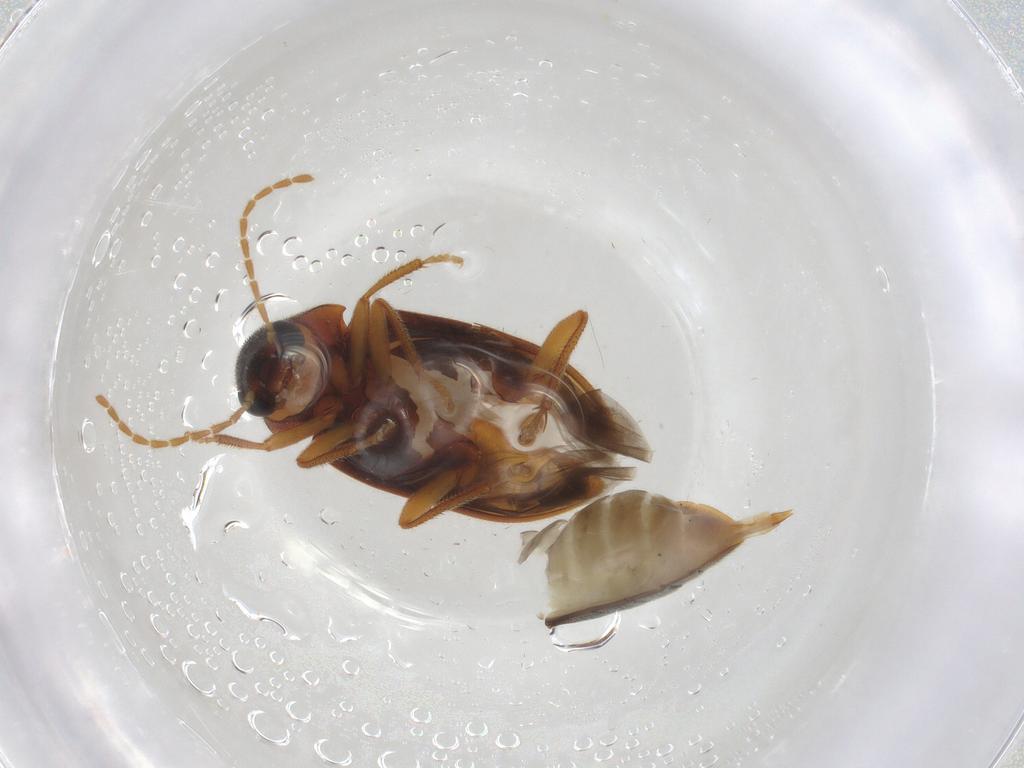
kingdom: Animalia
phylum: Arthropoda
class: Insecta
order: Coleoptera
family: Ptilodactylidae
